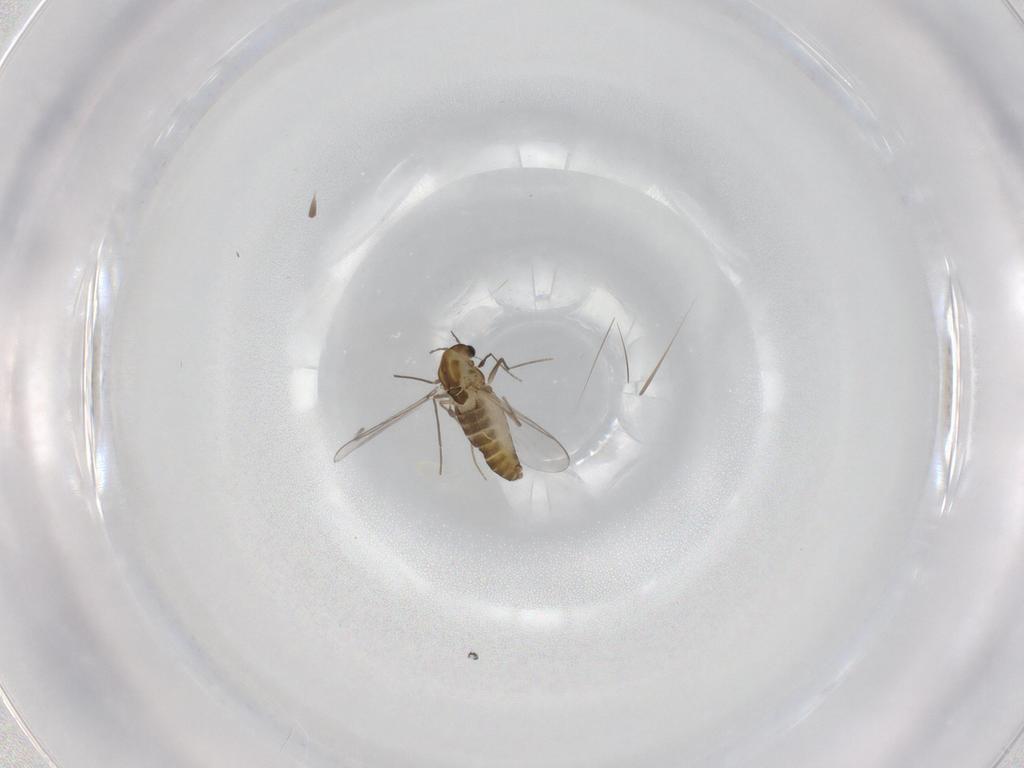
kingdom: Animalia
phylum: Arthropoda
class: Insecta
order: Diptera
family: Chironomidae
